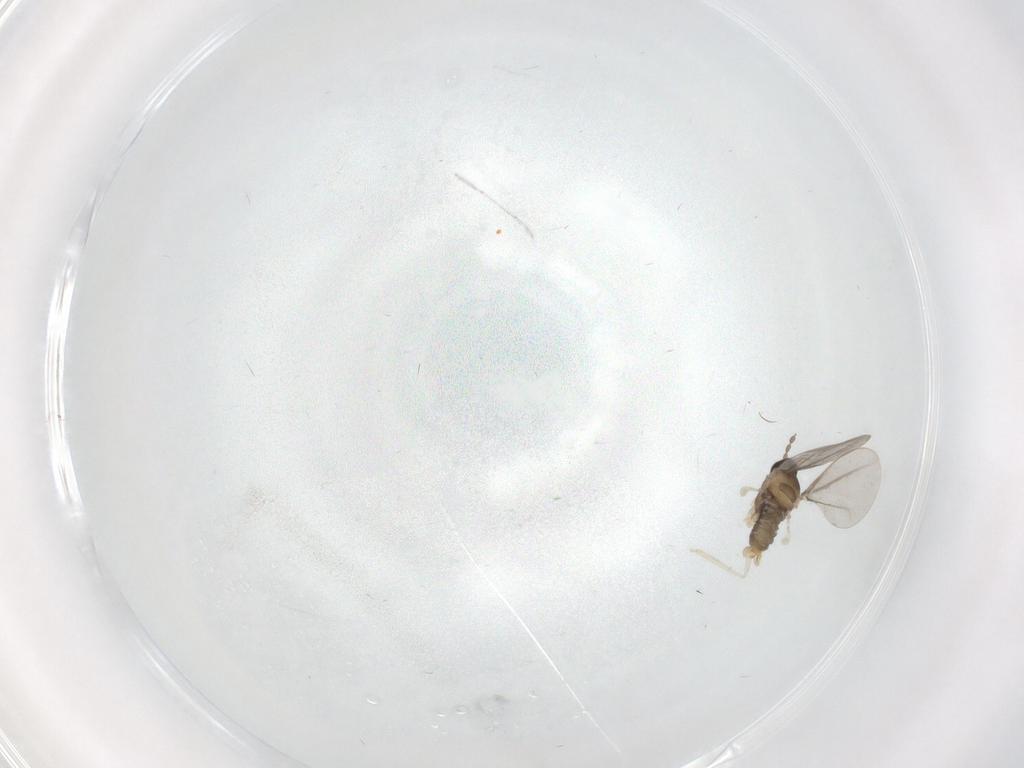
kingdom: Animalia
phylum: Arthropoda
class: Insecta
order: Diptera
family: Cecidomyiidae
